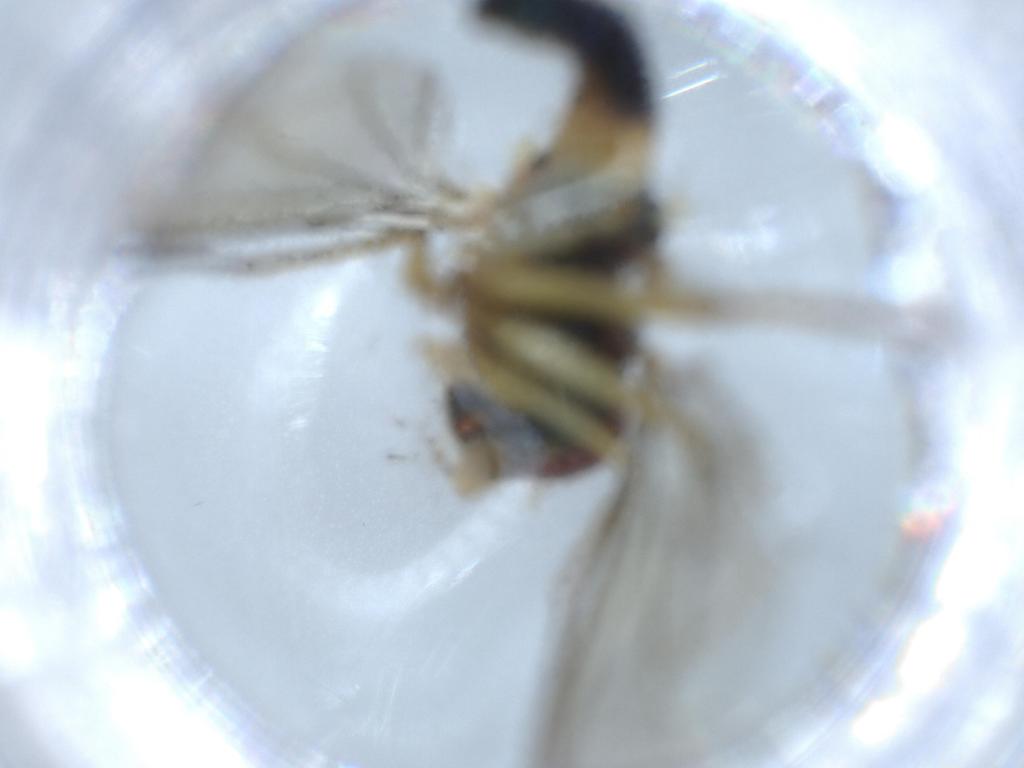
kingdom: Animalia
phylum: Arthropoda
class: Insecta
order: Diptera
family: Dolichopodidae
